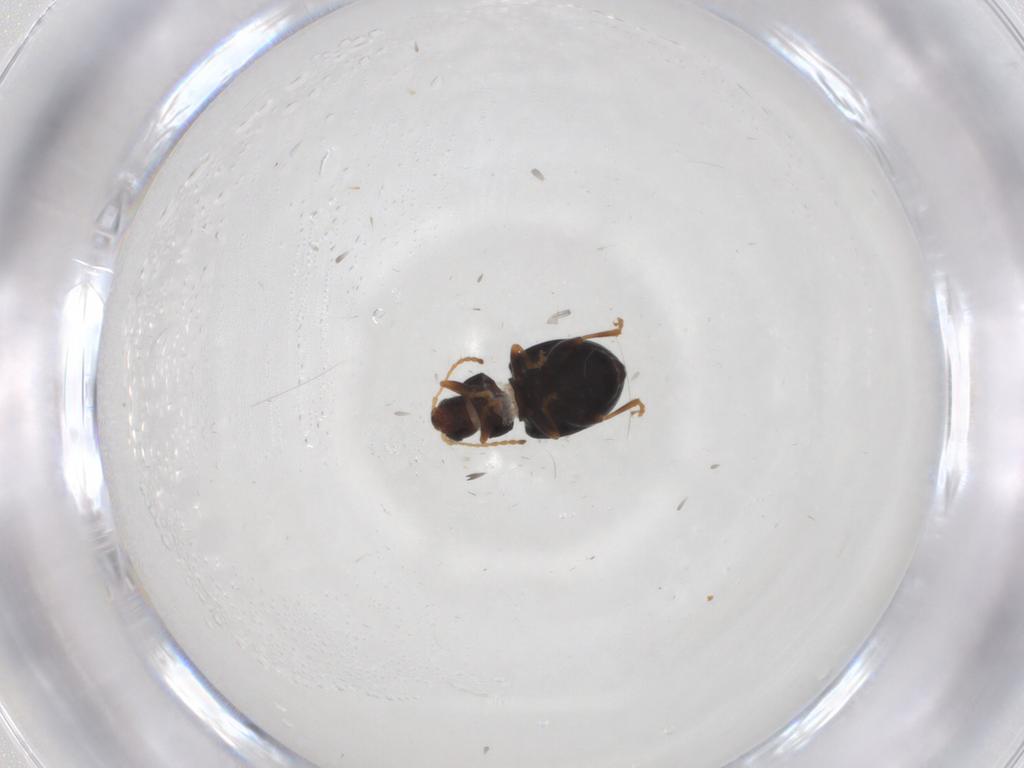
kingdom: Animalia
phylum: Arthropoda
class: Insecta
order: Coleoptera
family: Chrysomelidae
